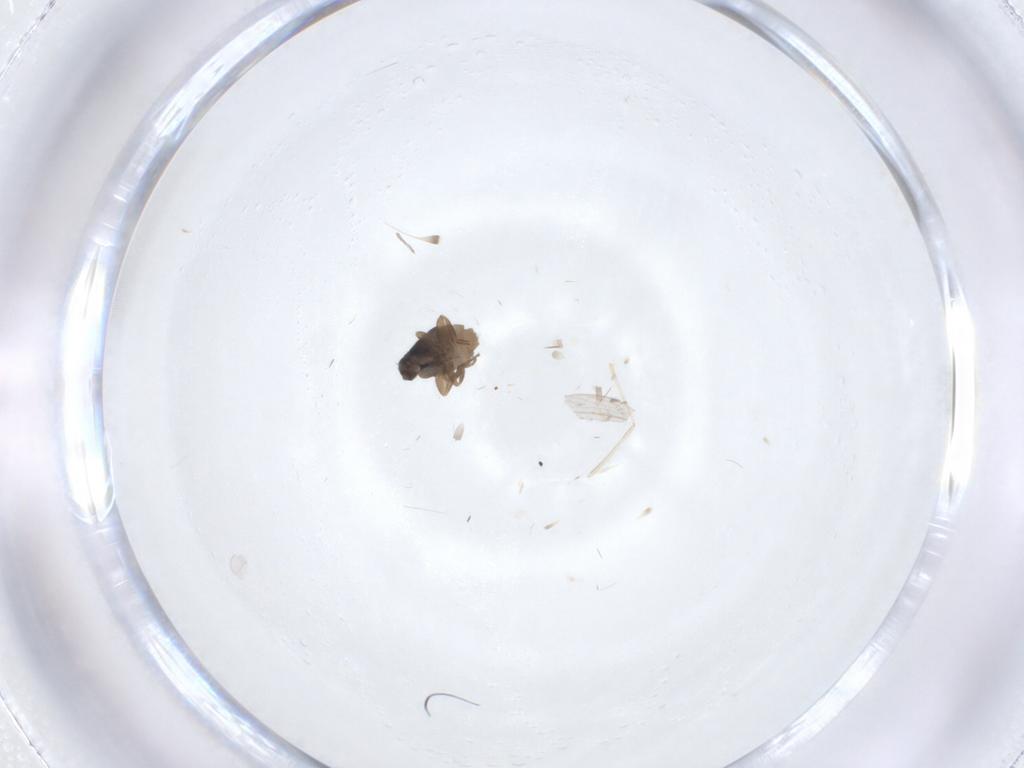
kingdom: Animalia
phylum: Arthropoda
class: Insecta
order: Diptera
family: Psychodidae
